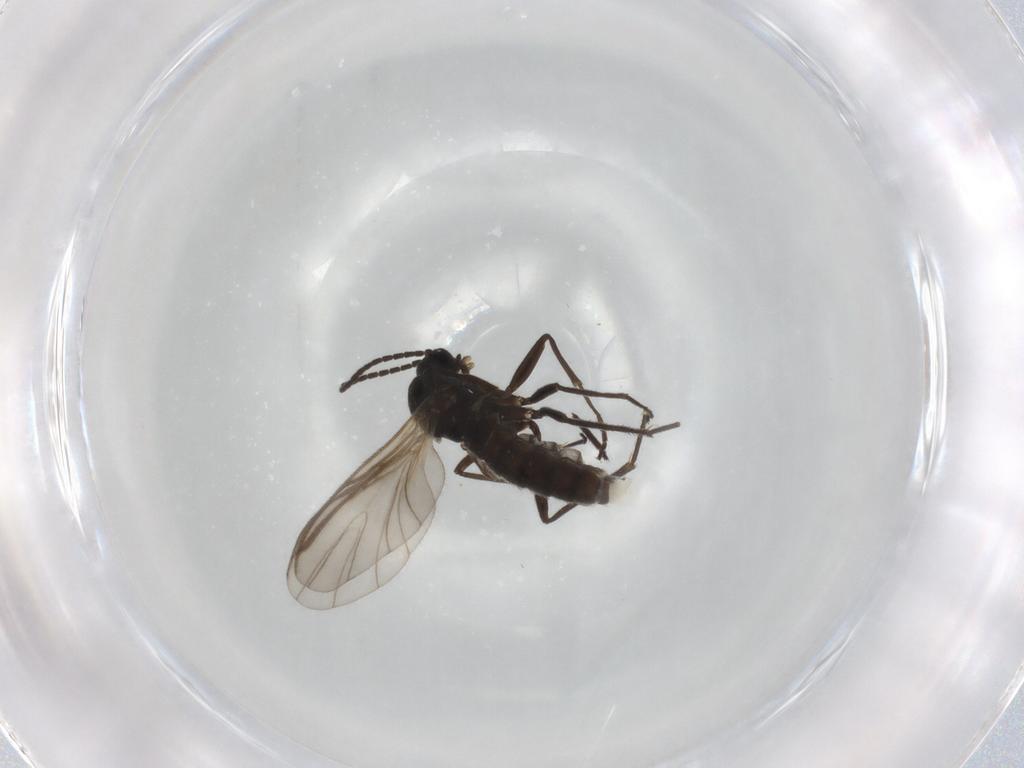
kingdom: Animalia
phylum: Arthropoda
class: Insecta
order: Diptera
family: Sciaridae
